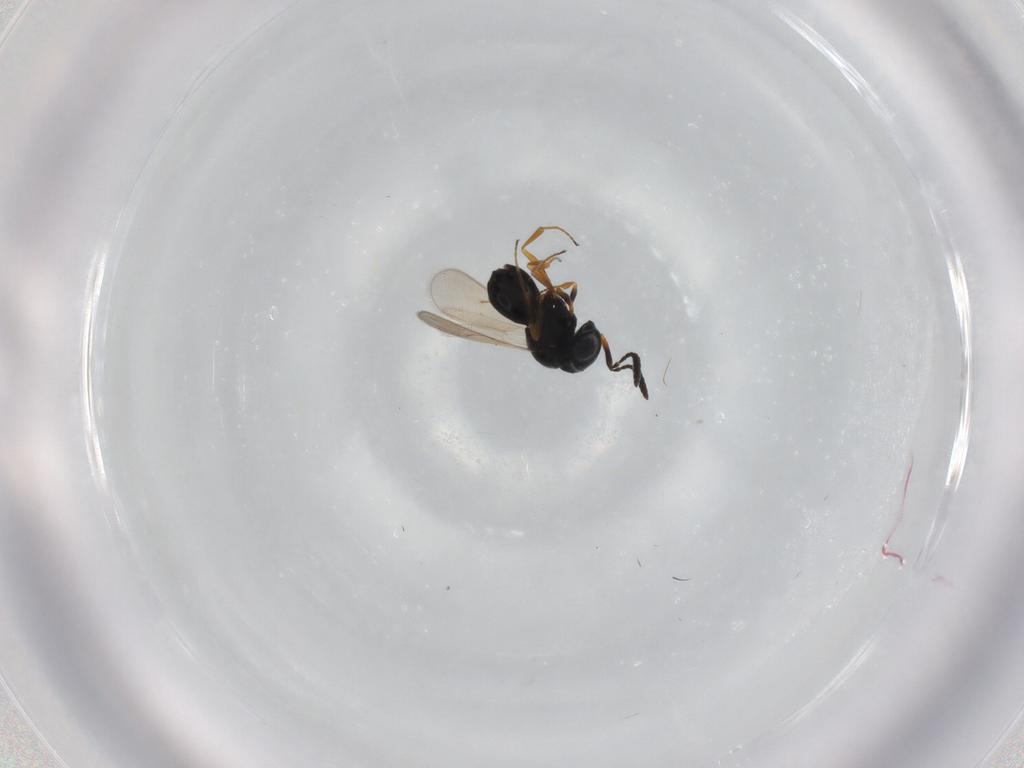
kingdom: Animalia
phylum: Arthropoda
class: Insecta
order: Hymenoptera
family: Scelionidae
